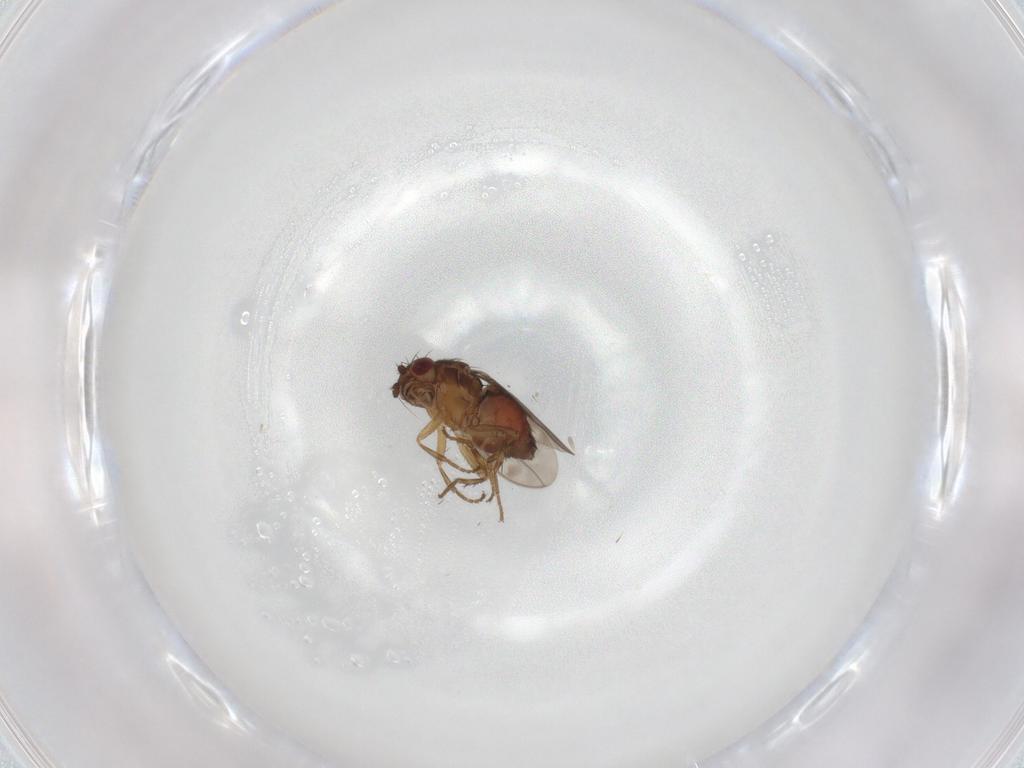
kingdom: Animalia
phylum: Arthropoda
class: Insecta
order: Diptera
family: Sphaeroceridae
